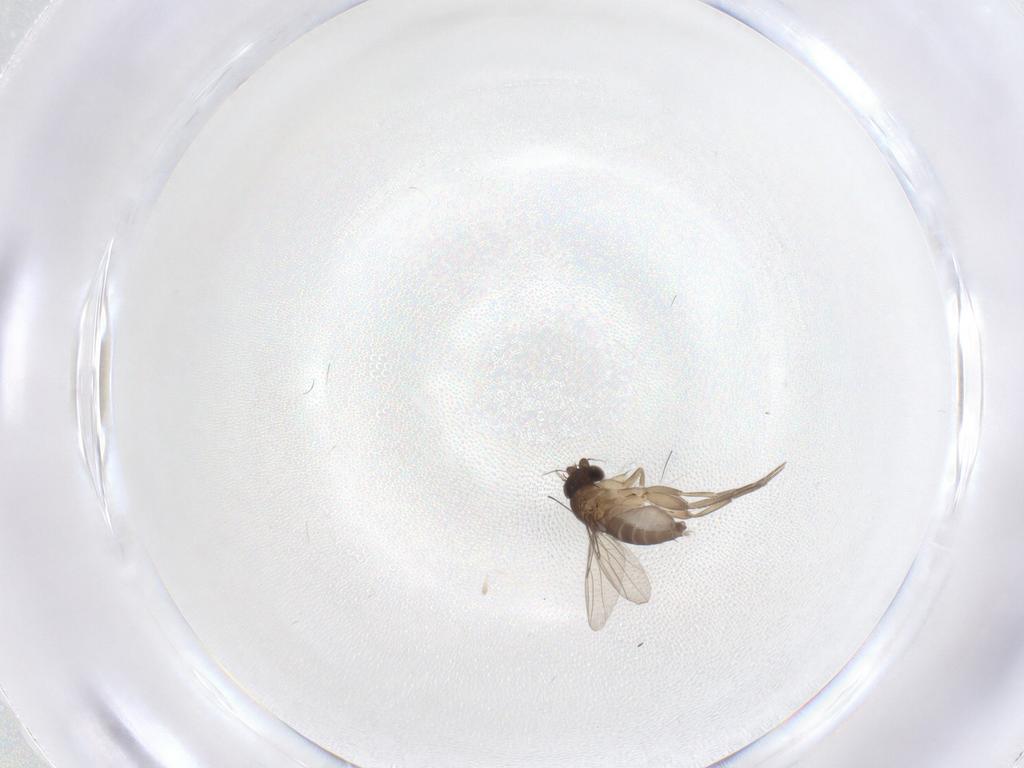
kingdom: Animalia
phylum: Arthropoda
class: Insecta
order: Diptera
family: Phoridae
